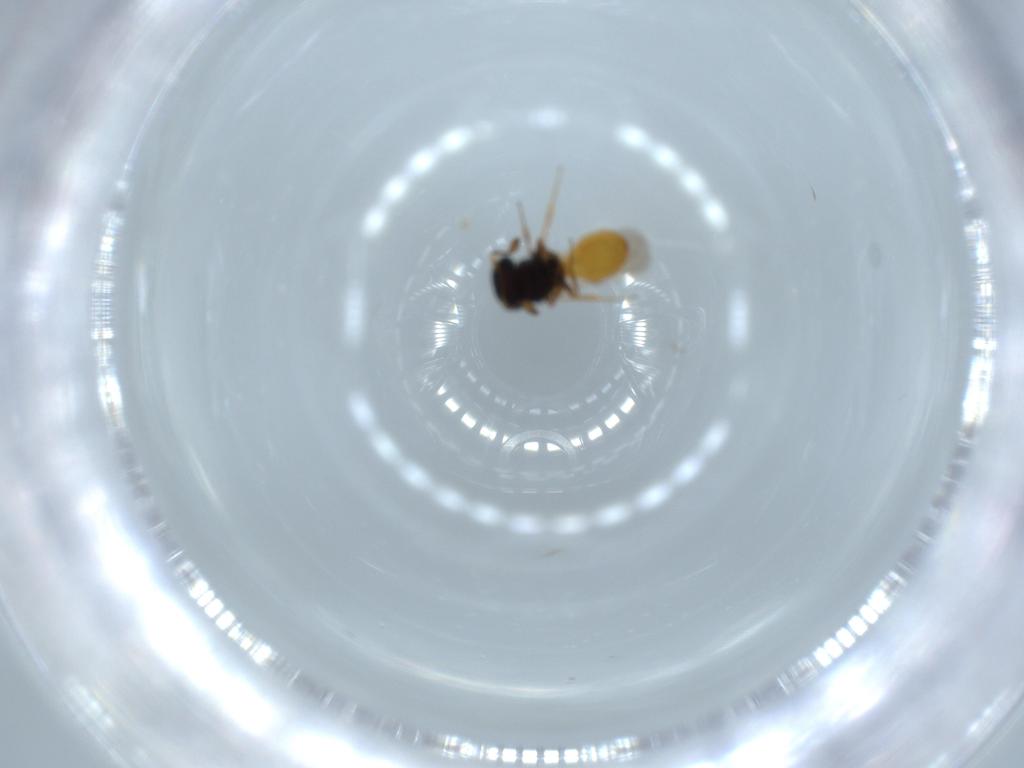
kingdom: Animalia
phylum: Arthropoda
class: Insecta
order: Hymenoptera
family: Scelionidae
